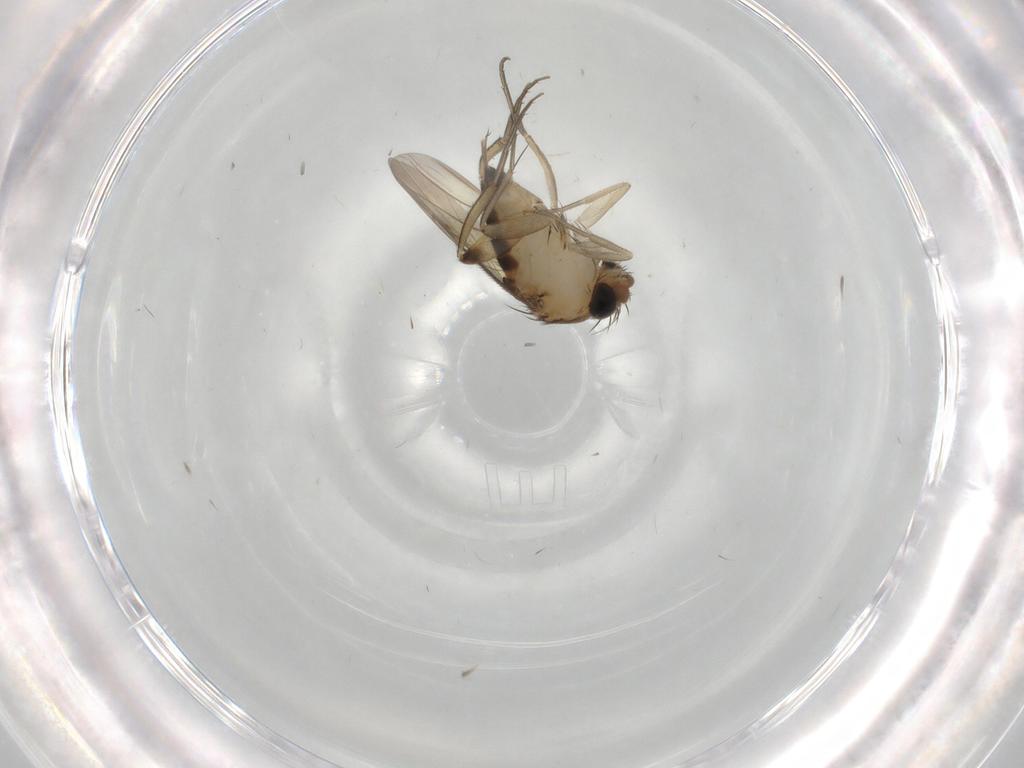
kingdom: Animalia
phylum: Arthropoda
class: Insecta
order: Diptera
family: Phoridae
